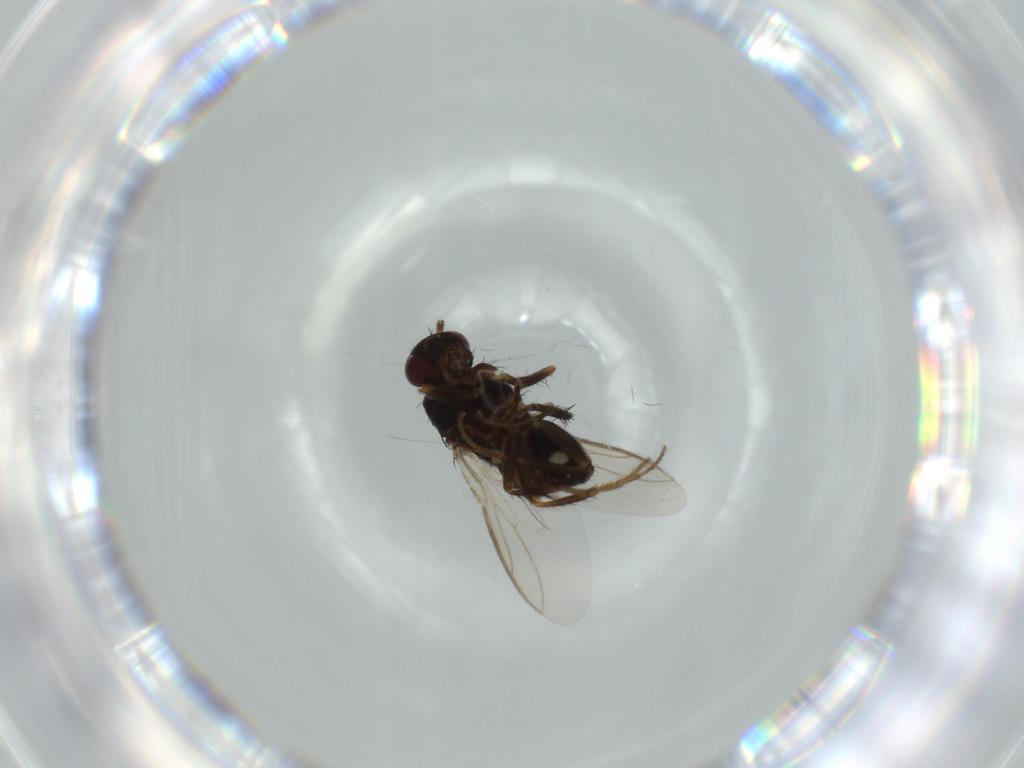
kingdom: Animalia
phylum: Arthropoda
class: Insecta
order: Diptera
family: Sphaeroceridae
